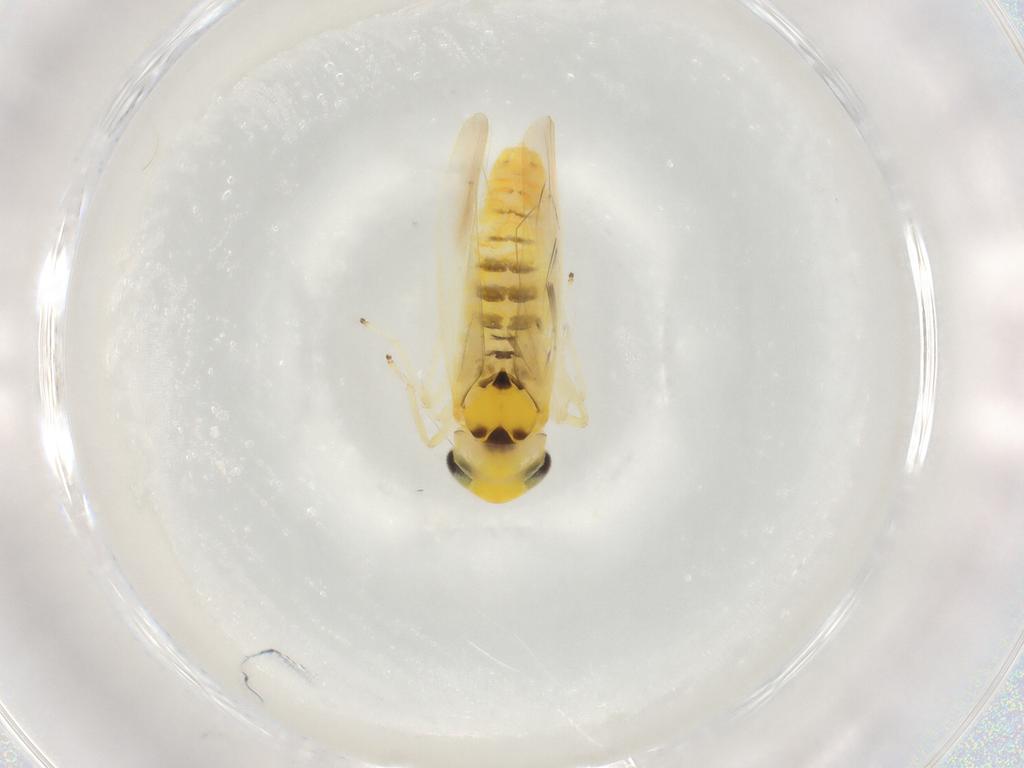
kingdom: Animalia
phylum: Arthropoda
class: Insecta
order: Hemiptera
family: Cicadellidae
